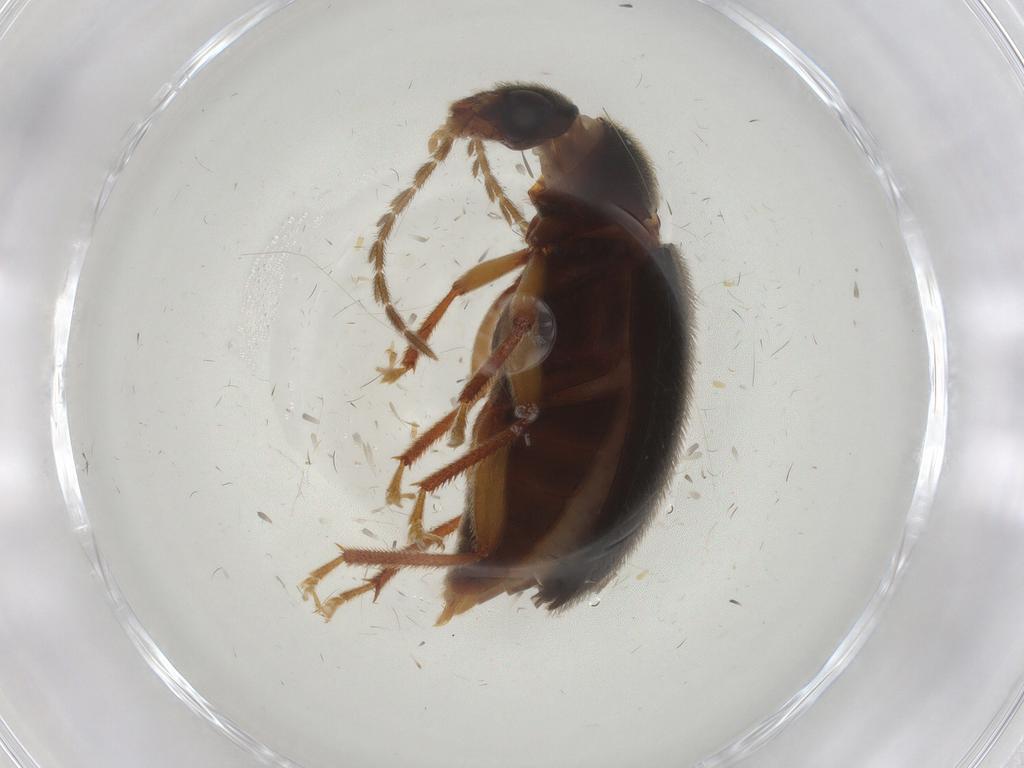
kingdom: Animalia
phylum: Arthropoda
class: Insecta
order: Coleoptera
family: Ptilodactylidae
